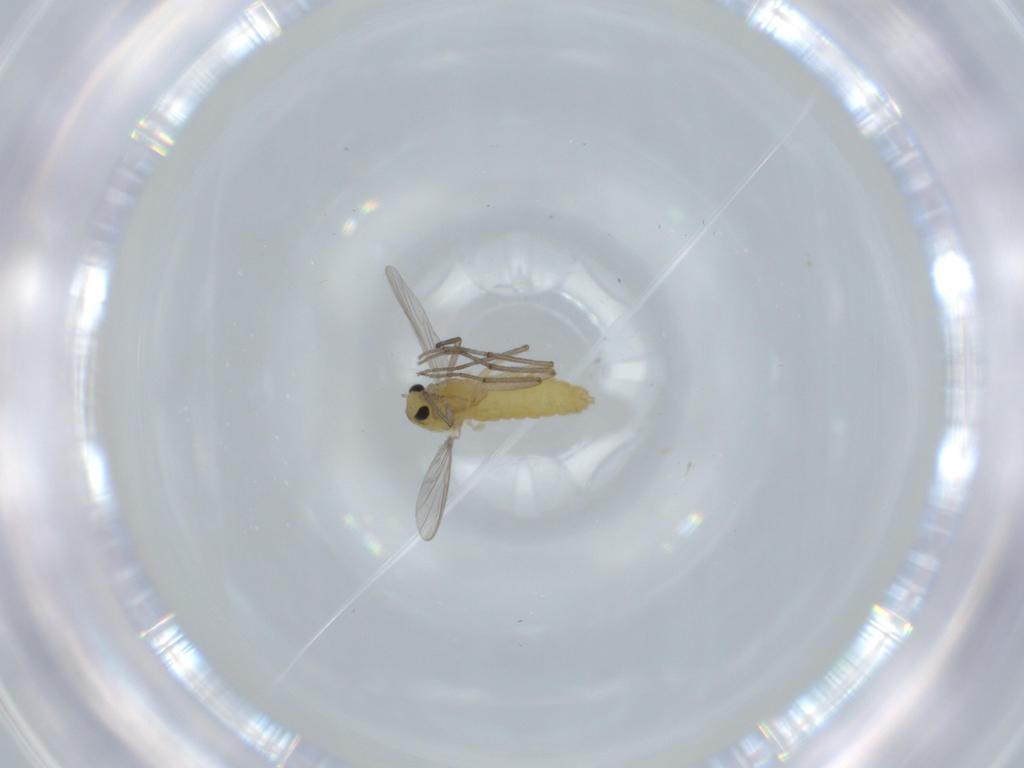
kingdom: Animalia
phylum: Arthropoda
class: Insecta
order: Diptera
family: Chironomidae
